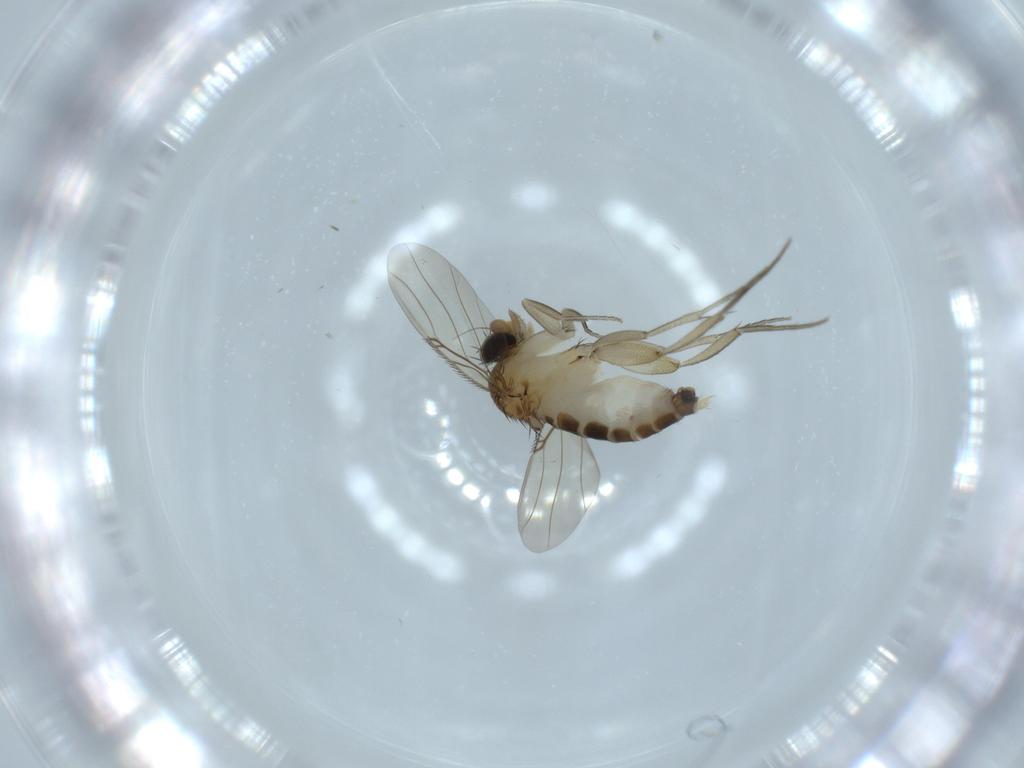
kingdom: Animalia
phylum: Arthropoda
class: Insecta
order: Diptera
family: Phoridae
